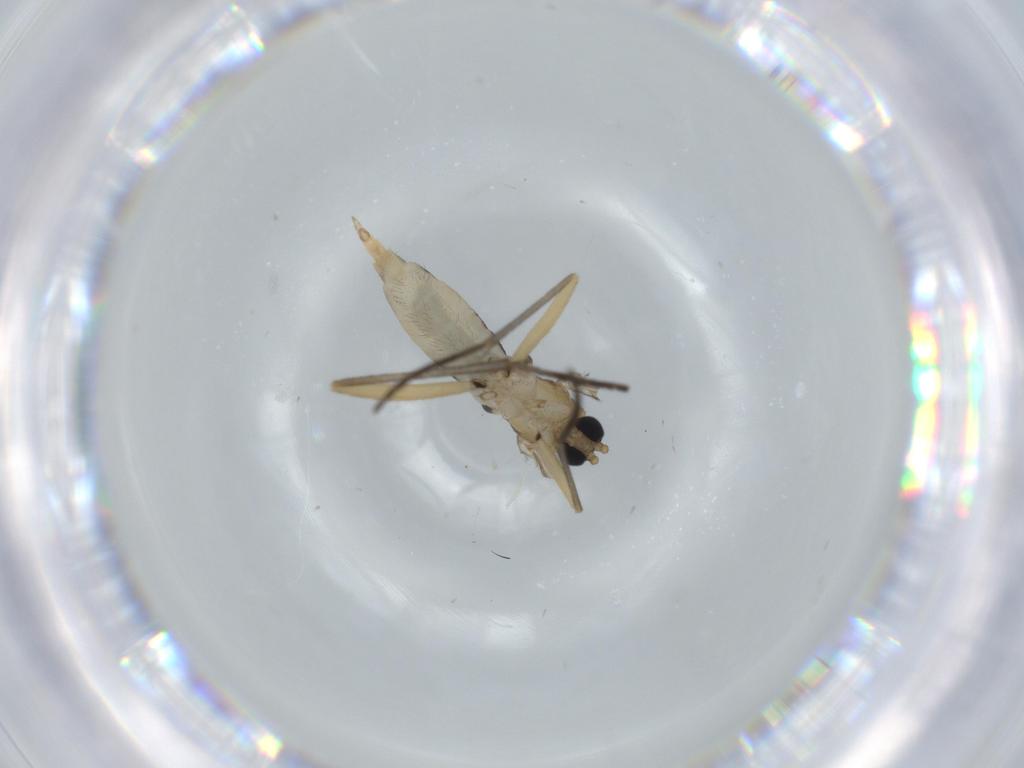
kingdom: Animalia
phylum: Arthropoda
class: Insecta
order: Diptera
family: Sciaridae
